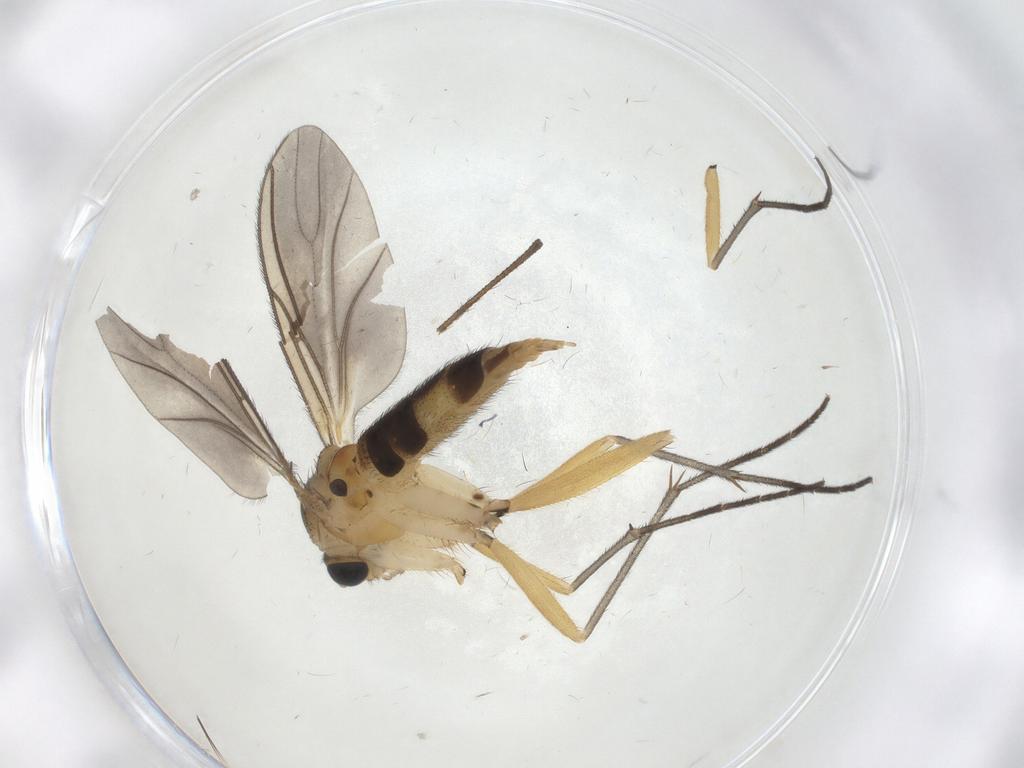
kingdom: Animalia
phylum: Arthropoda
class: Insecta
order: Diptera
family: Sciaridae
